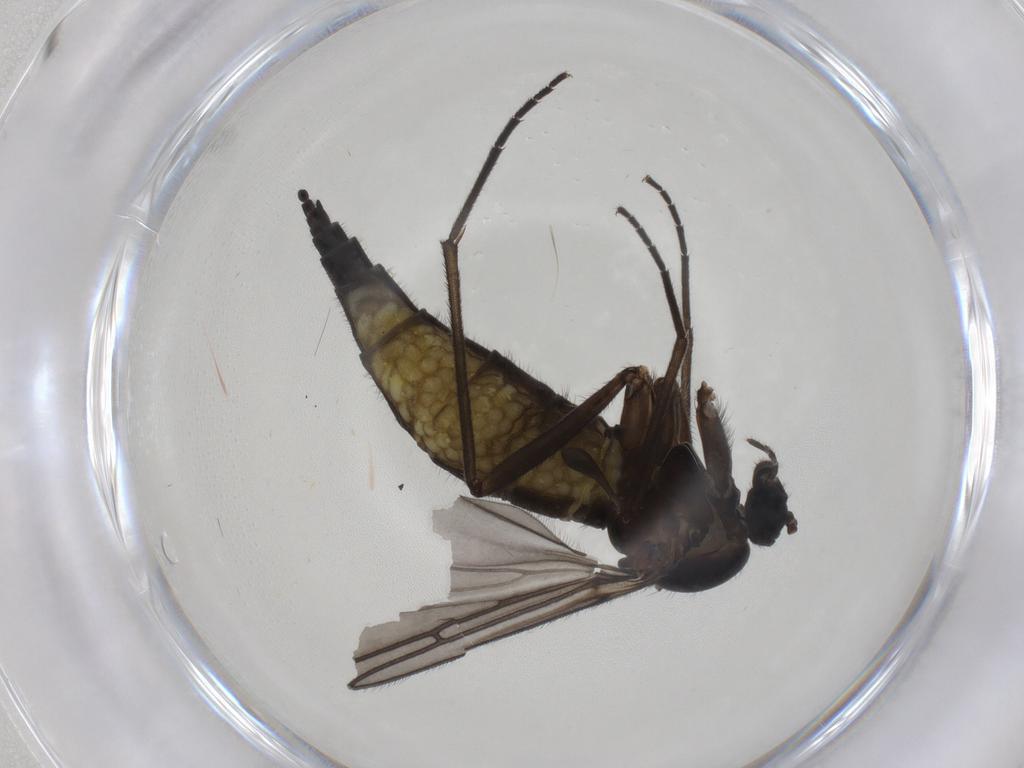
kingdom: Animalia
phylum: Arthropoda
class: Insecta
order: Diptera
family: Sciaridae
